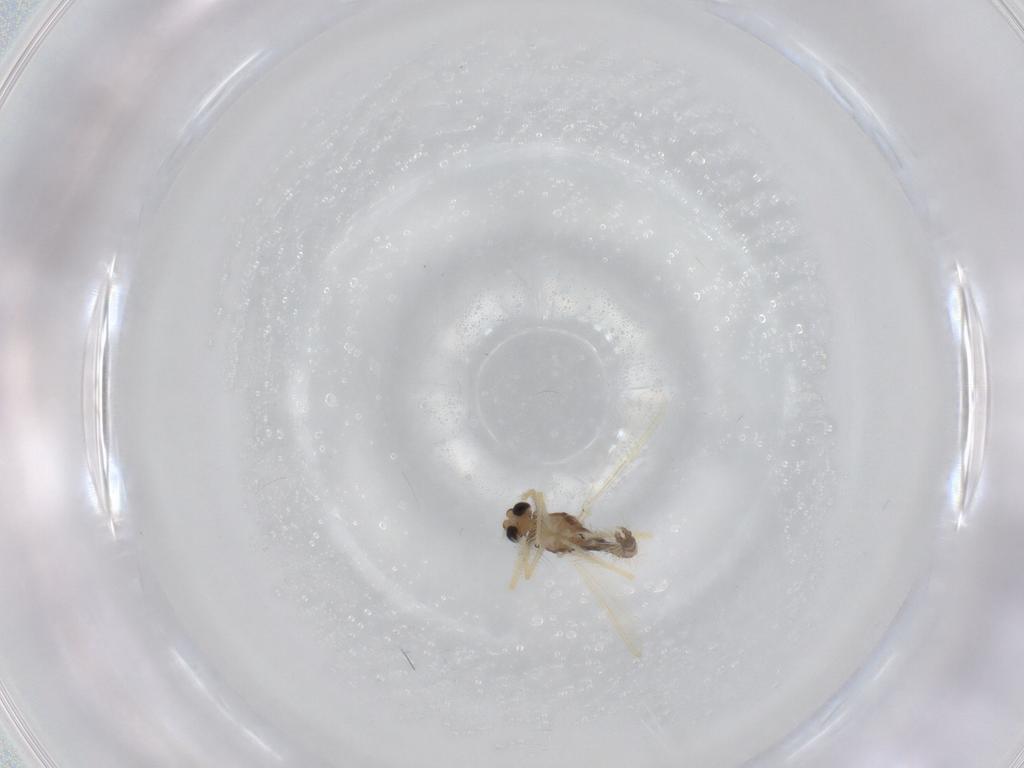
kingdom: Animalia
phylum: Arthropoda
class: Insecta
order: Diptera
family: Chironomidae
